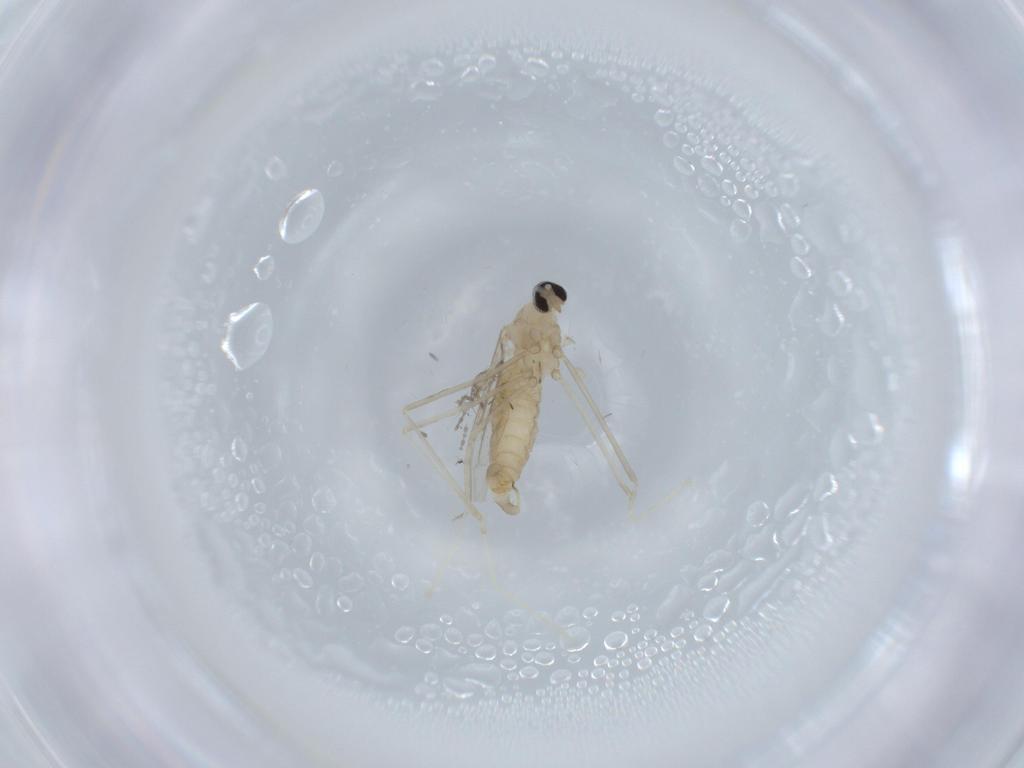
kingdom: Animalia
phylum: Arthropoda
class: Insecta
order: Diptera
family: Cecidomyiidae
